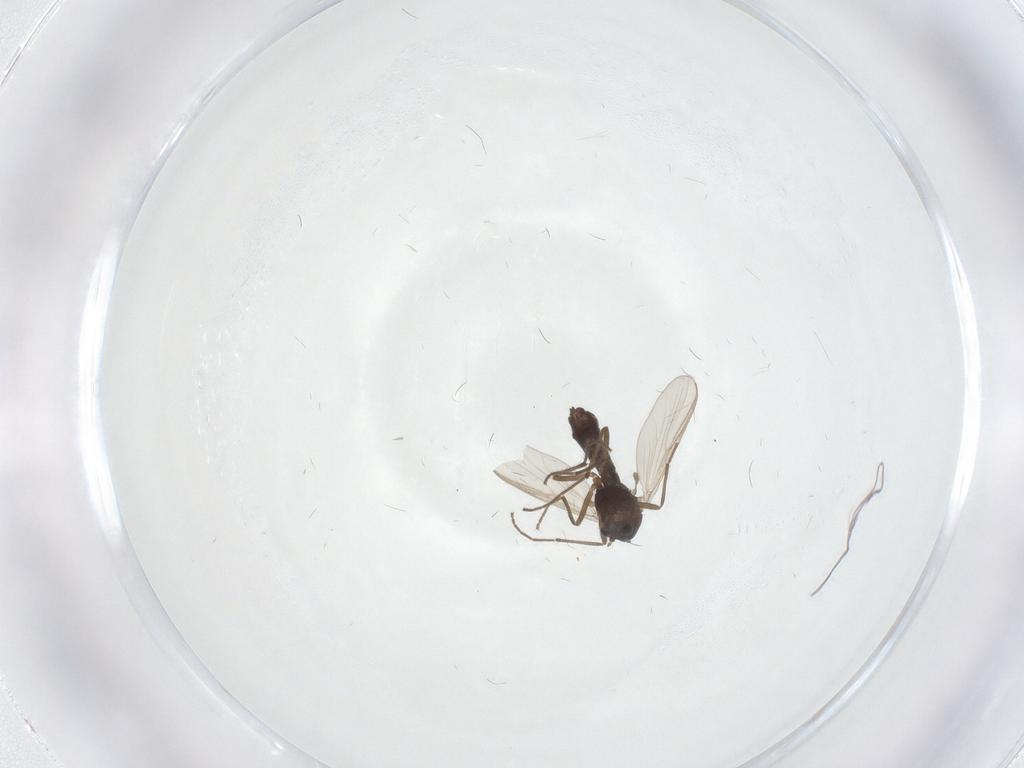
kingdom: Animalia
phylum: Arthropoda
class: Insecta
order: Diptera
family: Chironomidae
